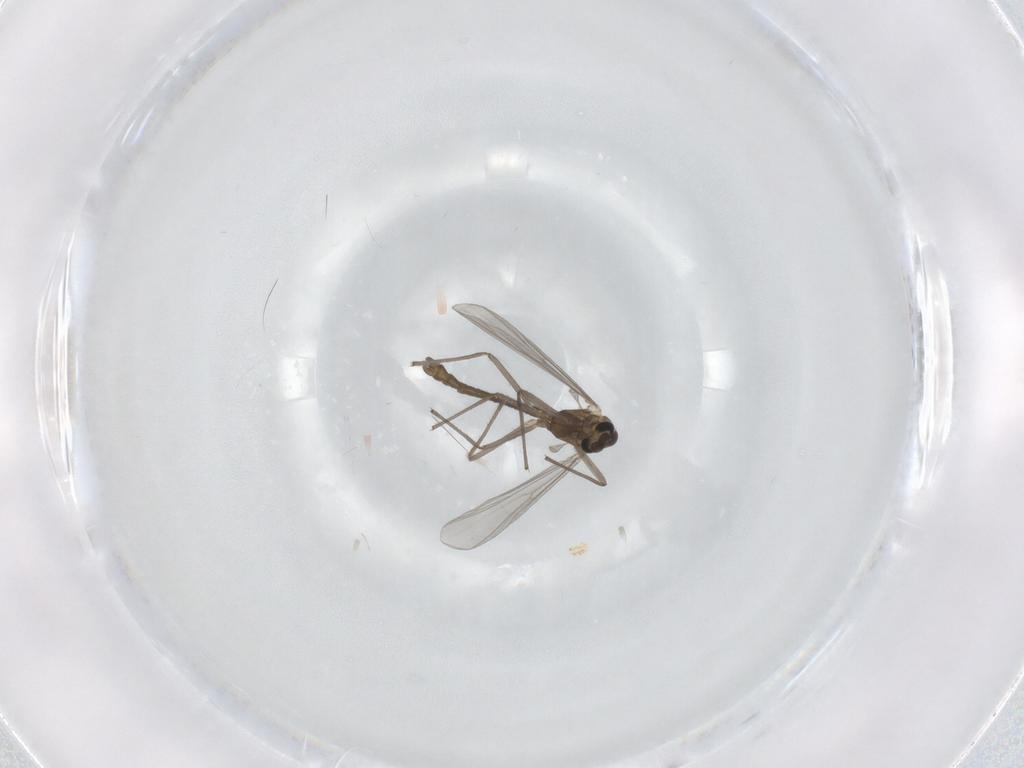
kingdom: Animalia
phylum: Arthropoda
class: Insecta
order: Diptera
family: Chironomidae
